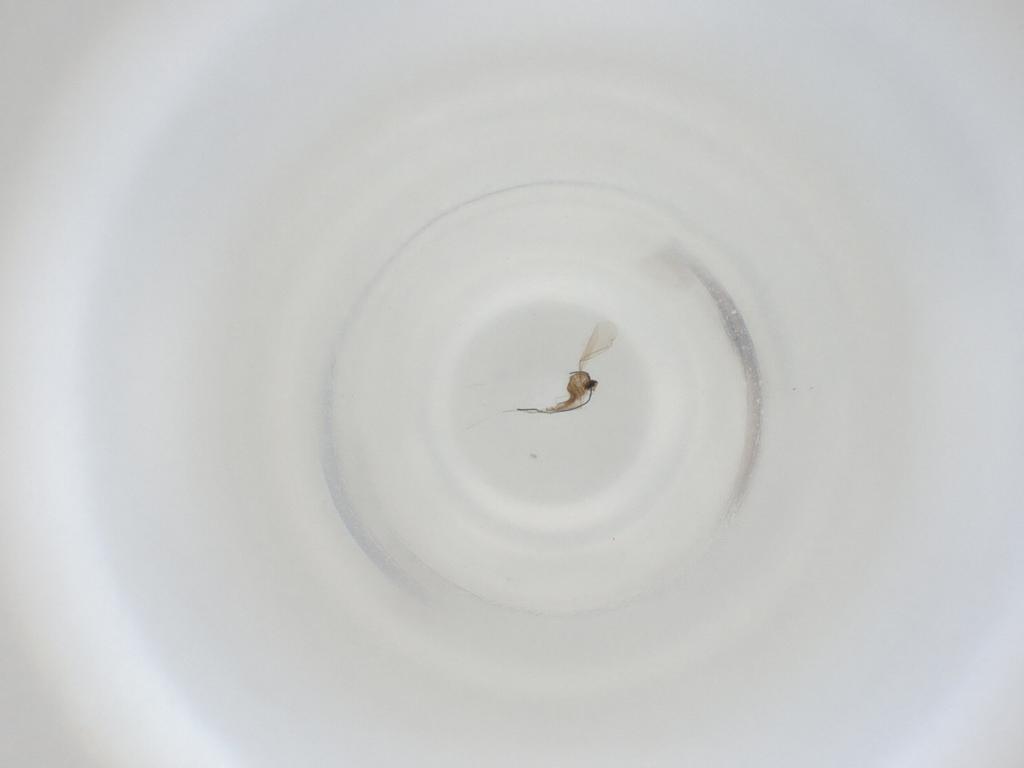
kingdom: Animalia
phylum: Arthropoda
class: Insecta
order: Diptera
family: Cecidomyiidae
